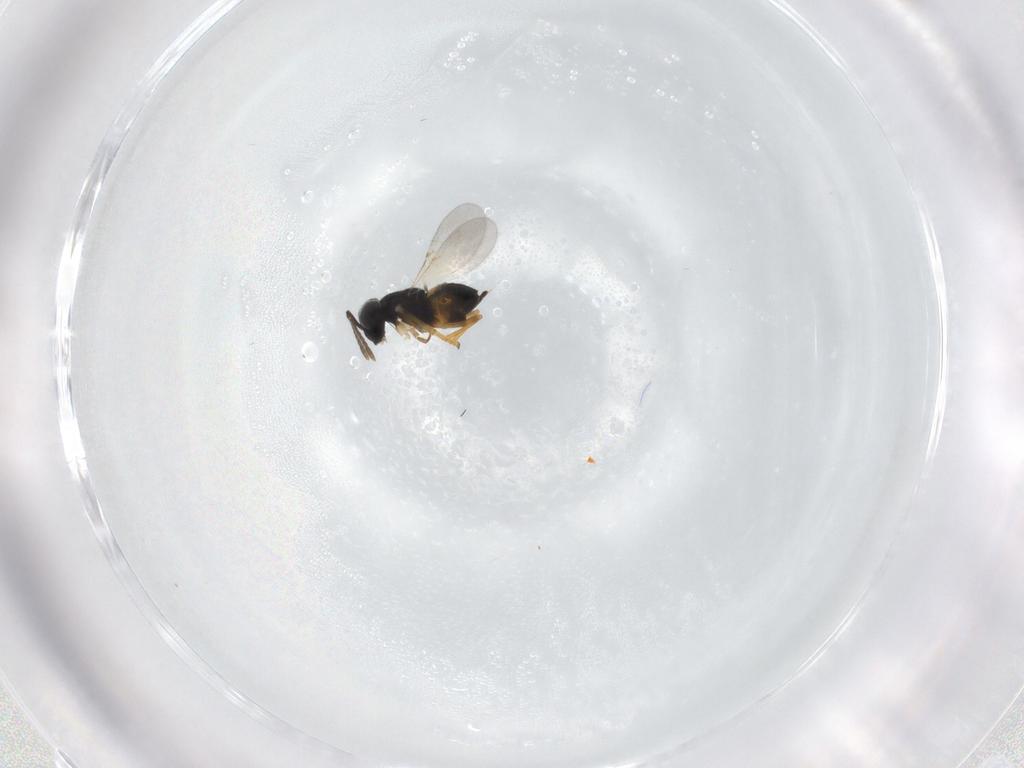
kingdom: Animalia
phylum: Arthropoda
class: Insecta
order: Hymenoptera
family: Encyrtidae
